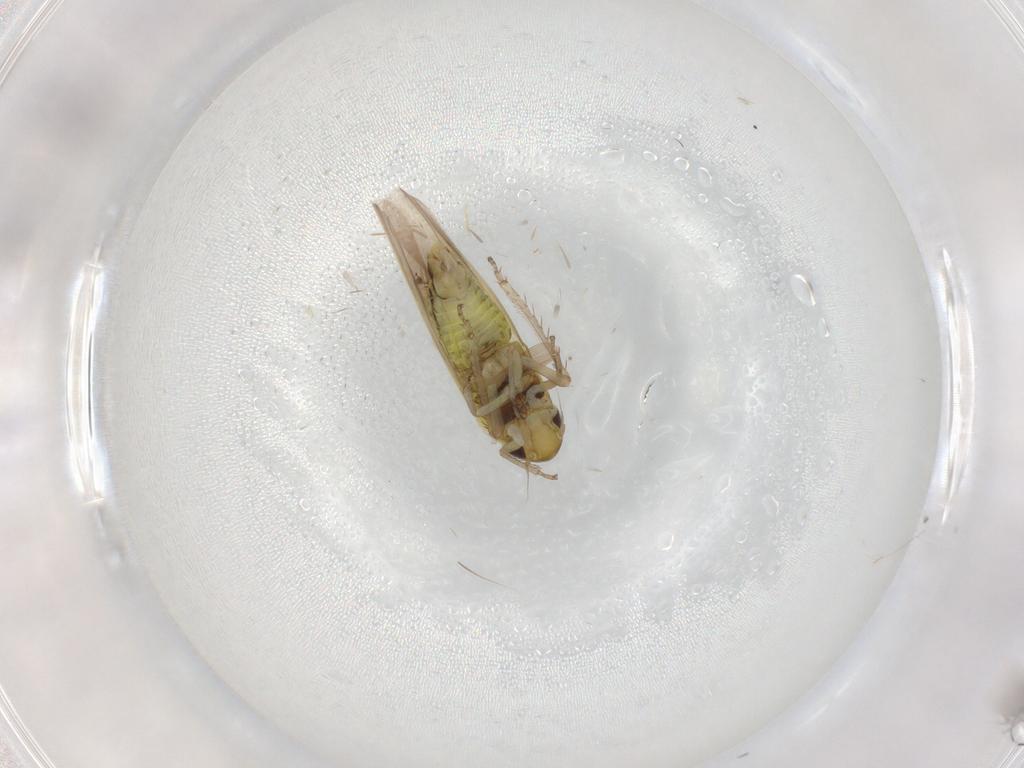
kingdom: Animalia
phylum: Arthropoda
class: Insecta
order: Hemiptera
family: Cicadellidae
